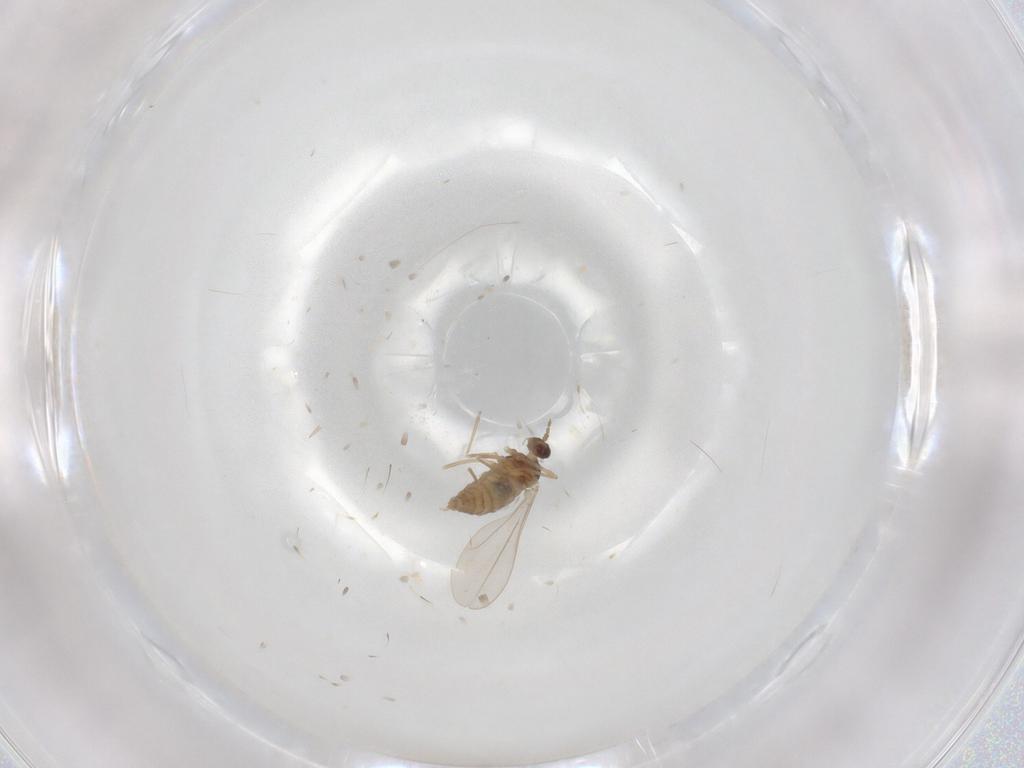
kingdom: Animalia
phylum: Arthropoda
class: Insecta
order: Diptera
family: Cecidomyiidae
